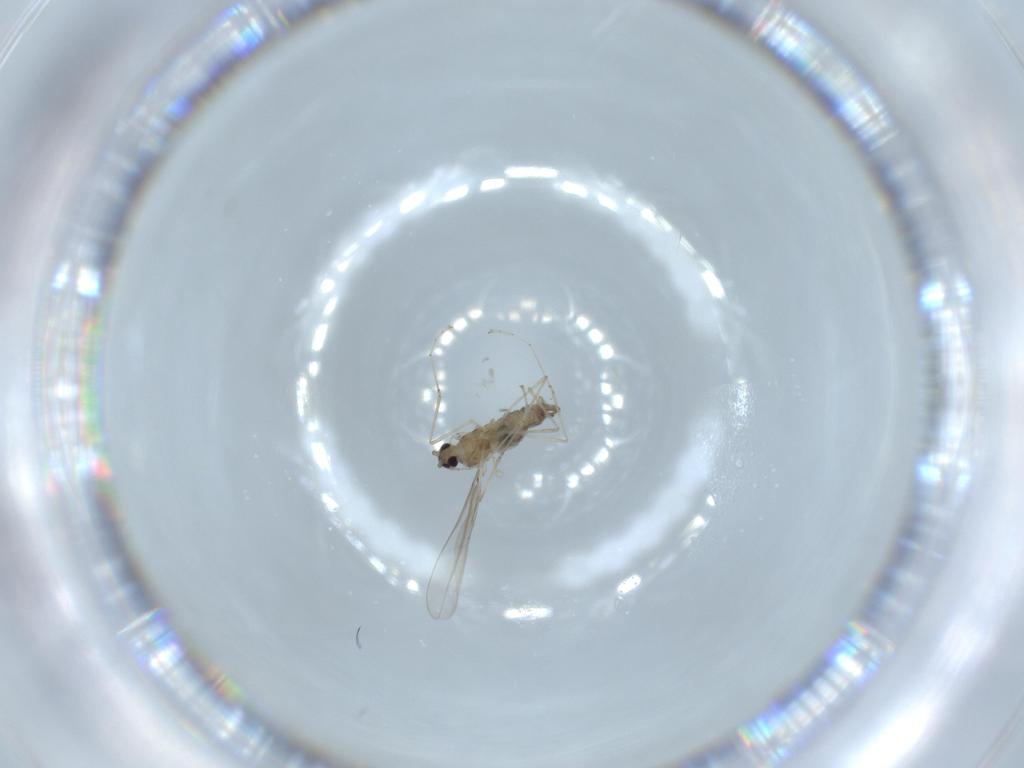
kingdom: Animalia
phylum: Arthropoda
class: Insecta
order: Diptera
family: Cecidomyiidae
